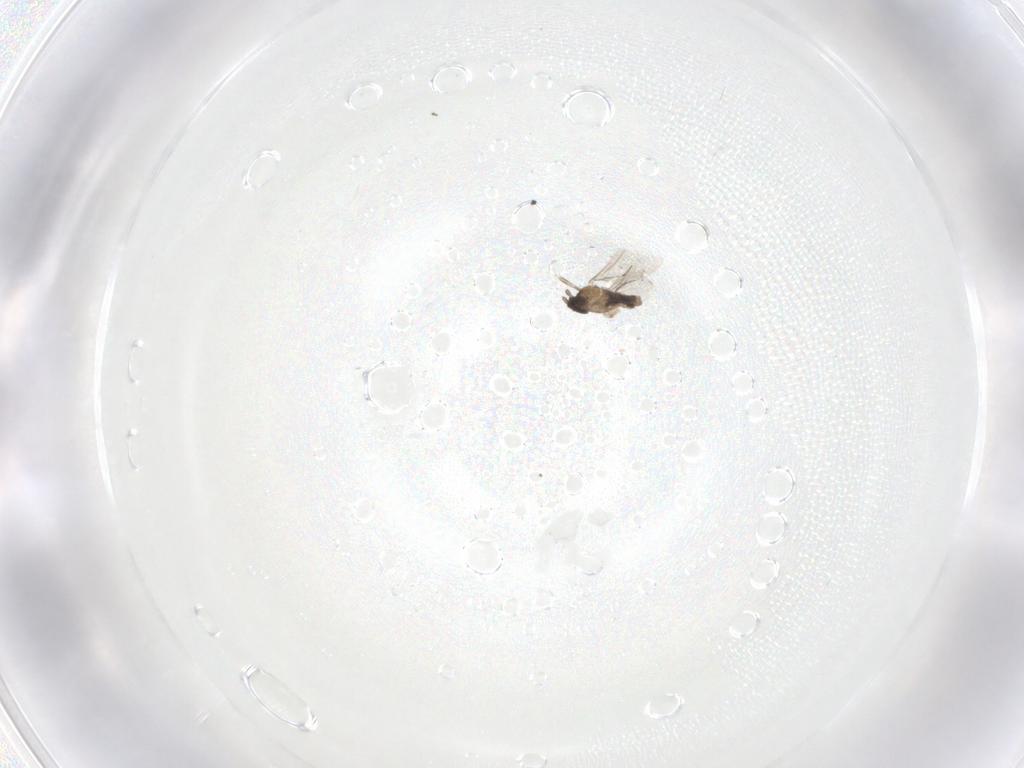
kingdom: Animalia
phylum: Arthropoda
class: Insecta
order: Diptera
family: Cecidomyiidae
